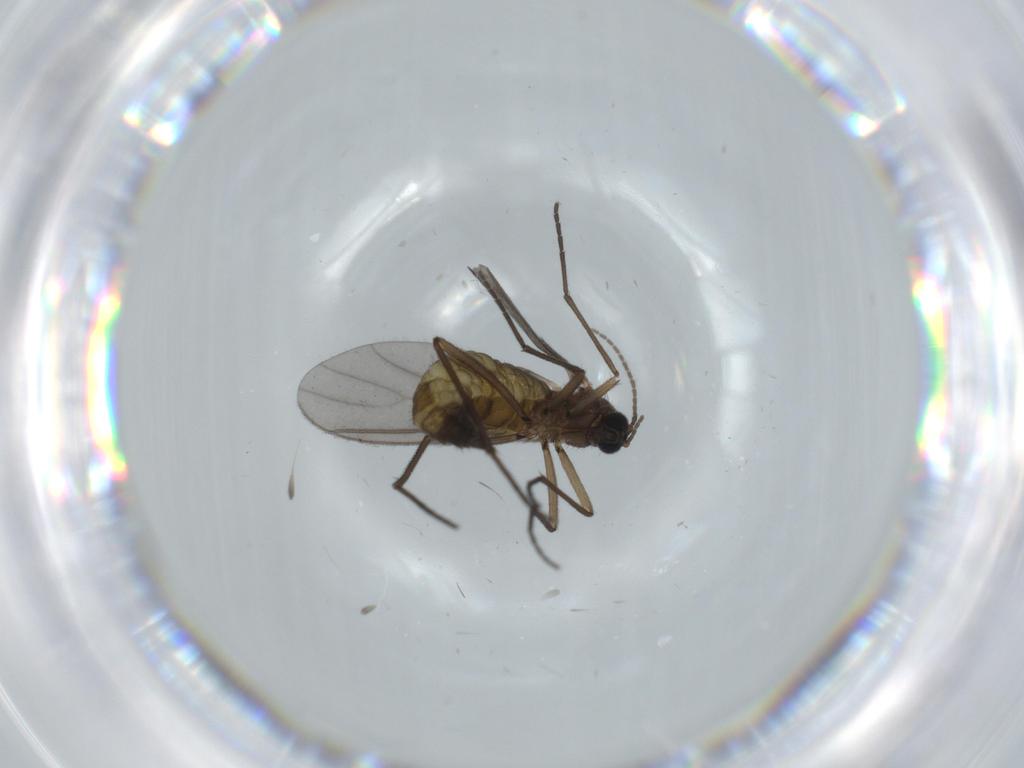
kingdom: Animalia
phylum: Arthropoda
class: Insecta
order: Diptera
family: Sciaridae
